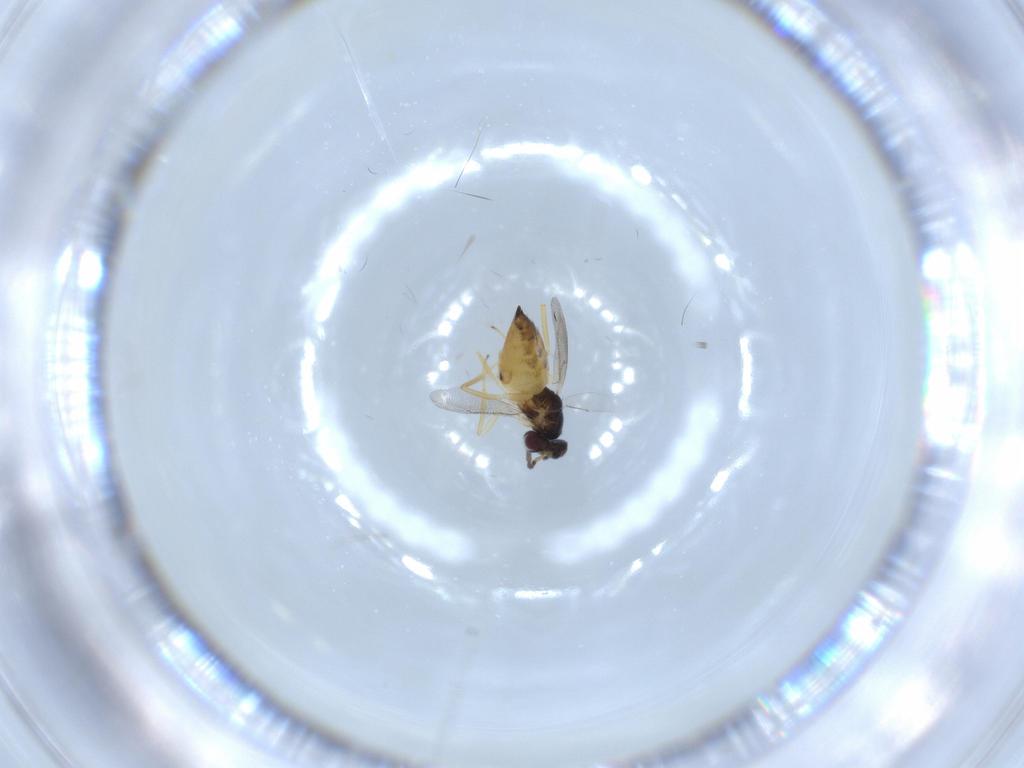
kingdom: Animalia
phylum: Arthropoda
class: Insecta
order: Hymenoptera
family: Eulophidae
